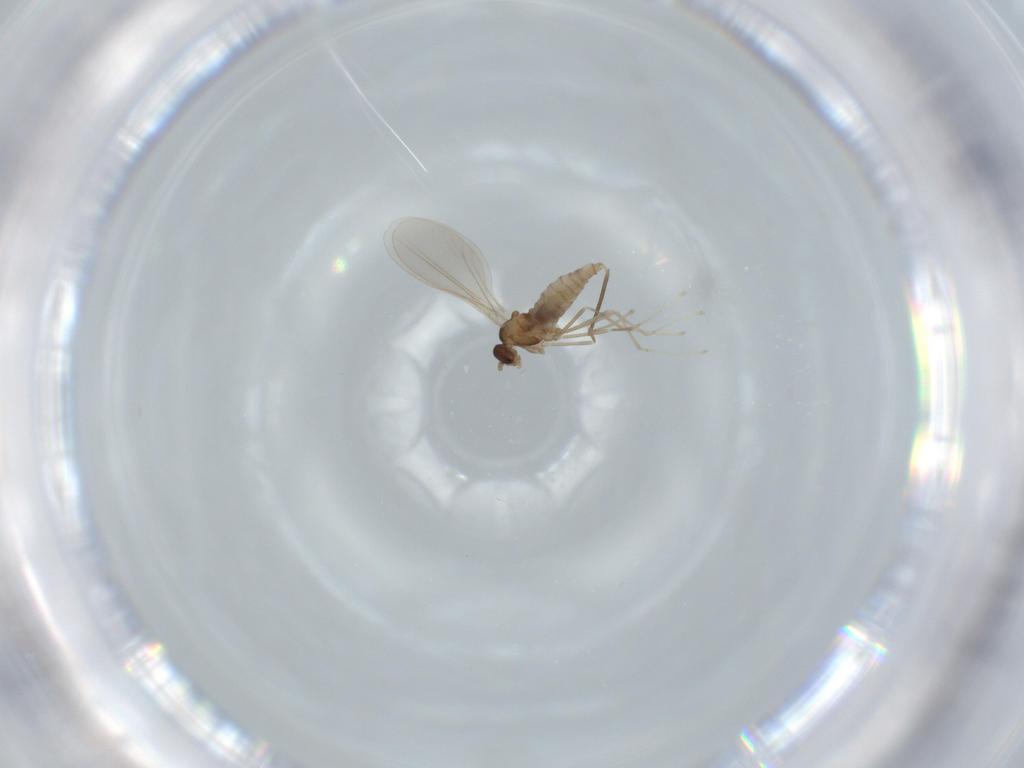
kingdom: Animalia
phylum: Arthropoda
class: Insecta
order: Diptera
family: Cecidomyiidae
